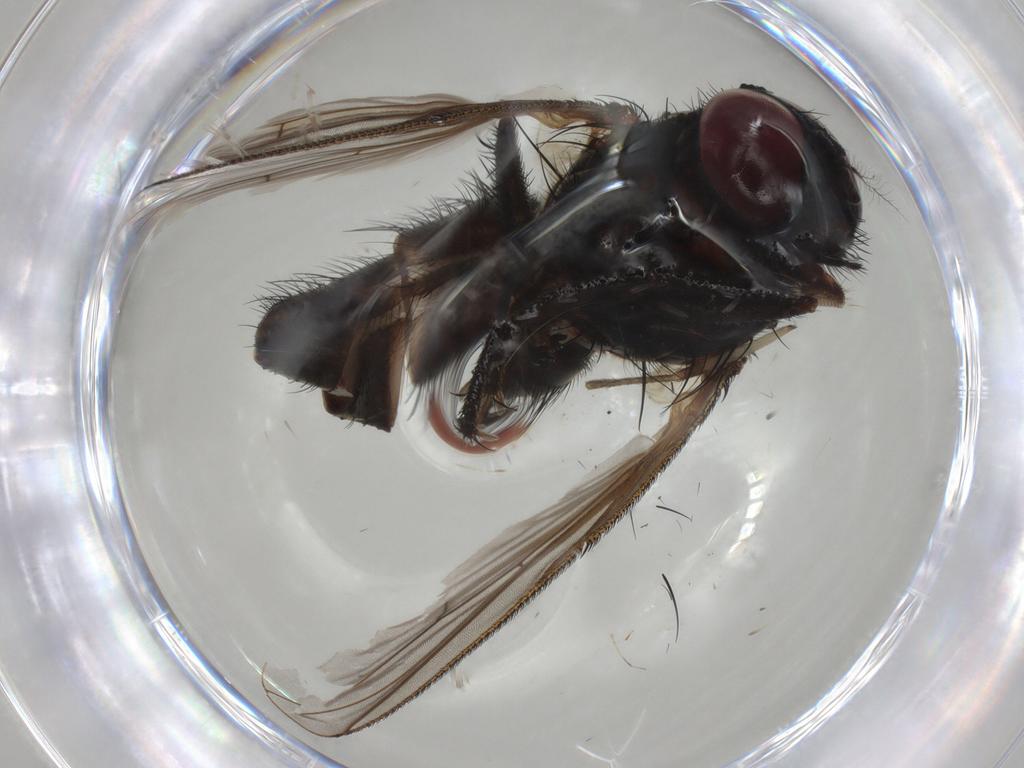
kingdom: Animalia
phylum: Arthropoda
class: Insecta
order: Diptera
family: Muscidae
